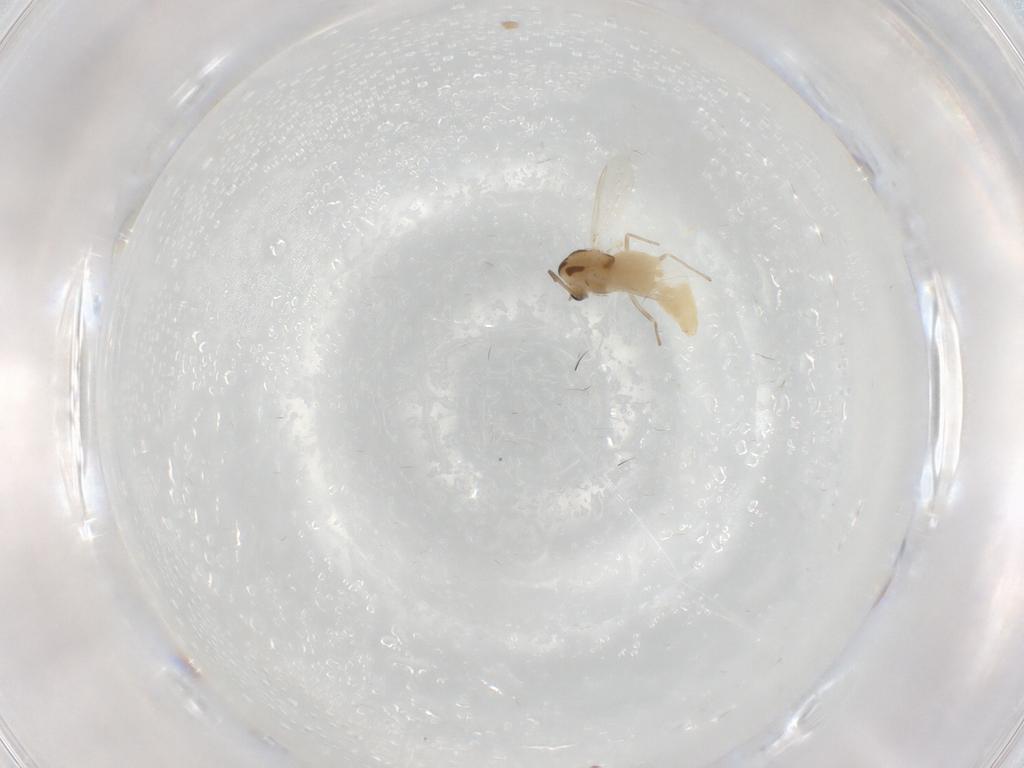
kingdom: Animalia
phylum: Arthropoda
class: Insecta
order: Diptera
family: Chironomidae
